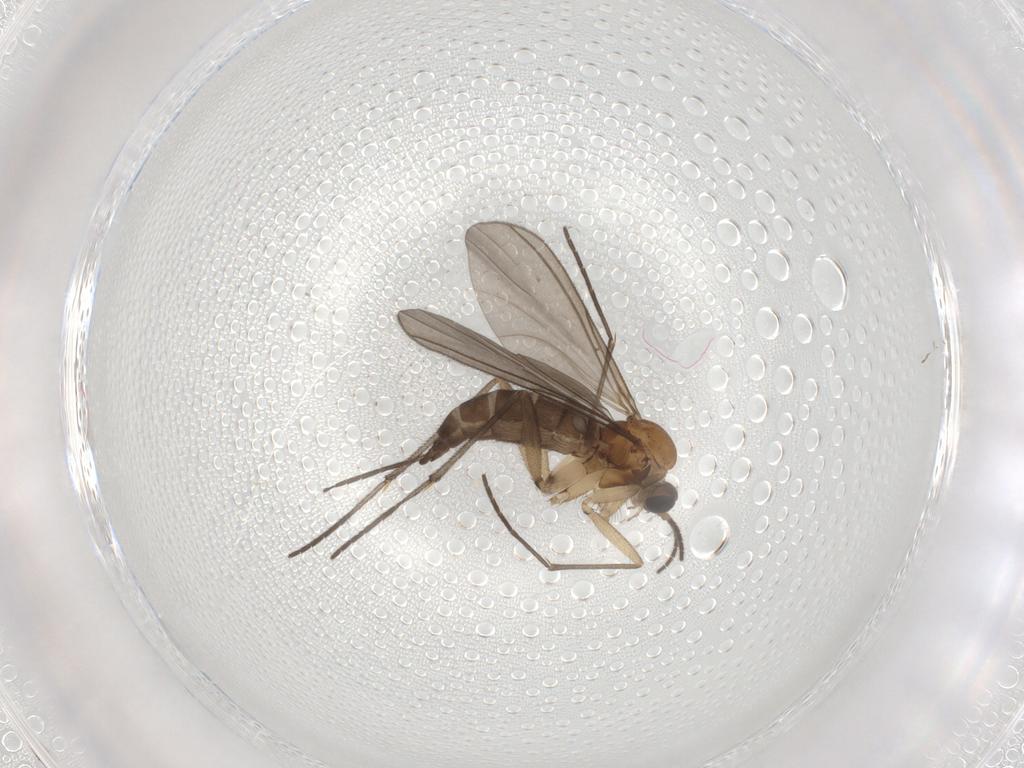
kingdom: Animalia
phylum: Arthropoda
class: Insecta
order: Diptera
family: Sciaridae
